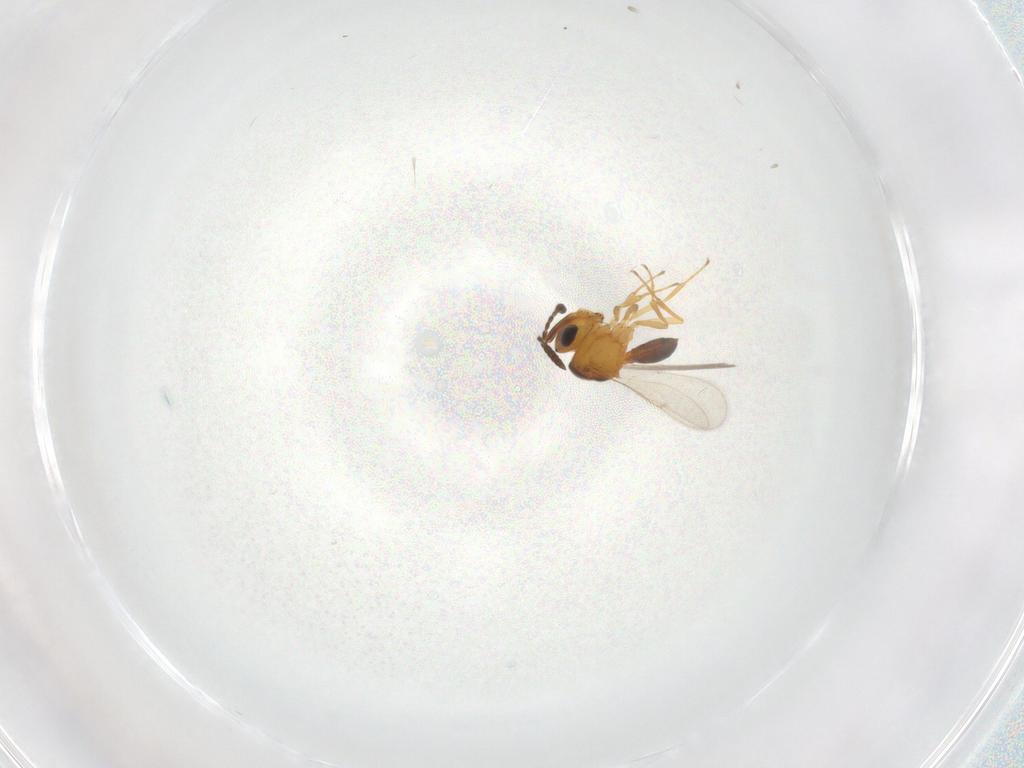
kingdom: Animalia
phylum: Arthropoda
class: Insecta
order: Hymenoptera
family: Scelionidae
